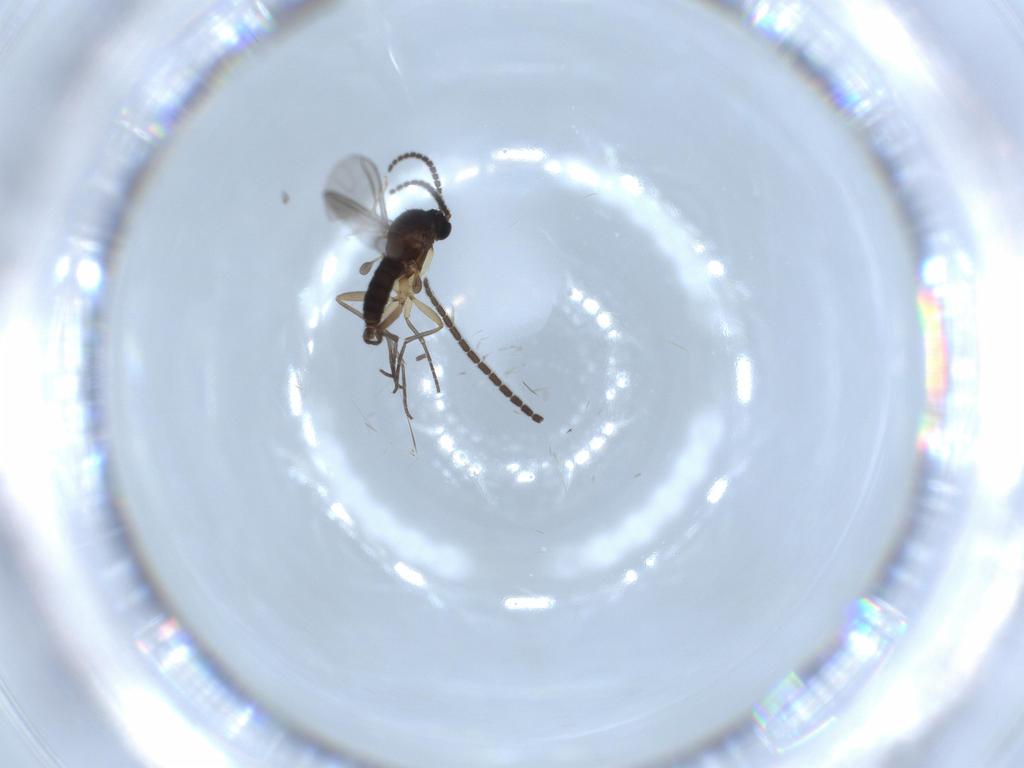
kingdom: Animalia
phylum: Arthropoda
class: Insecta
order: Diptera
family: Sciaridae
